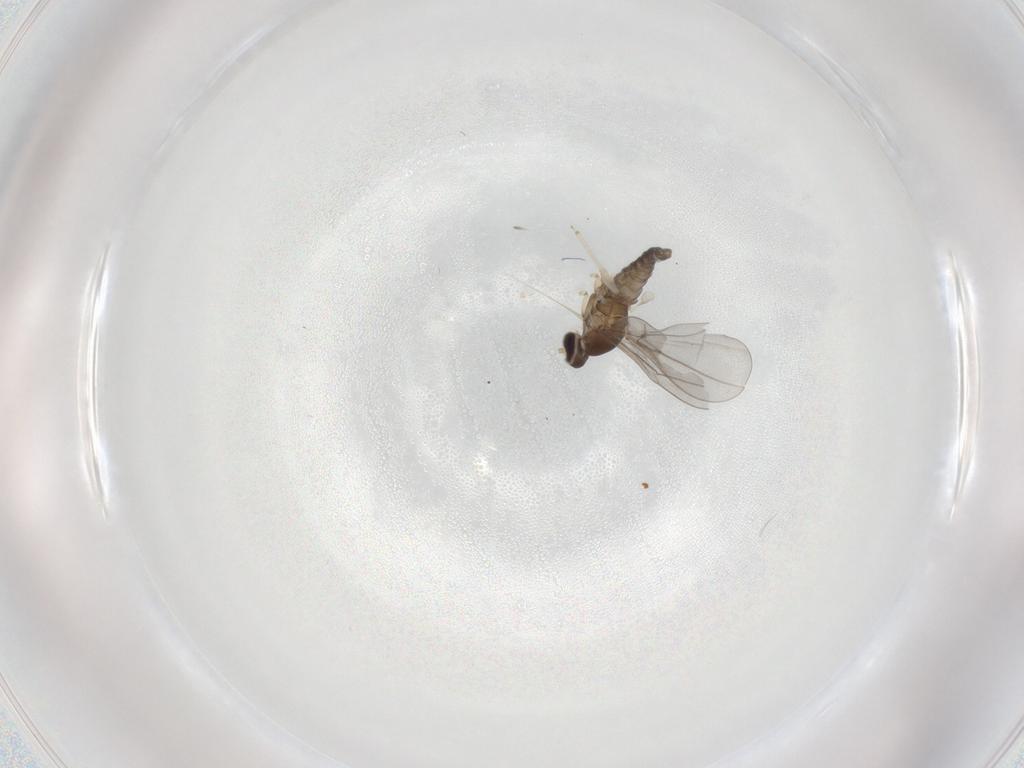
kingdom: Animalia
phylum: Arthropoda
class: Insecta
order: Diptera
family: Cecidomyiidae
